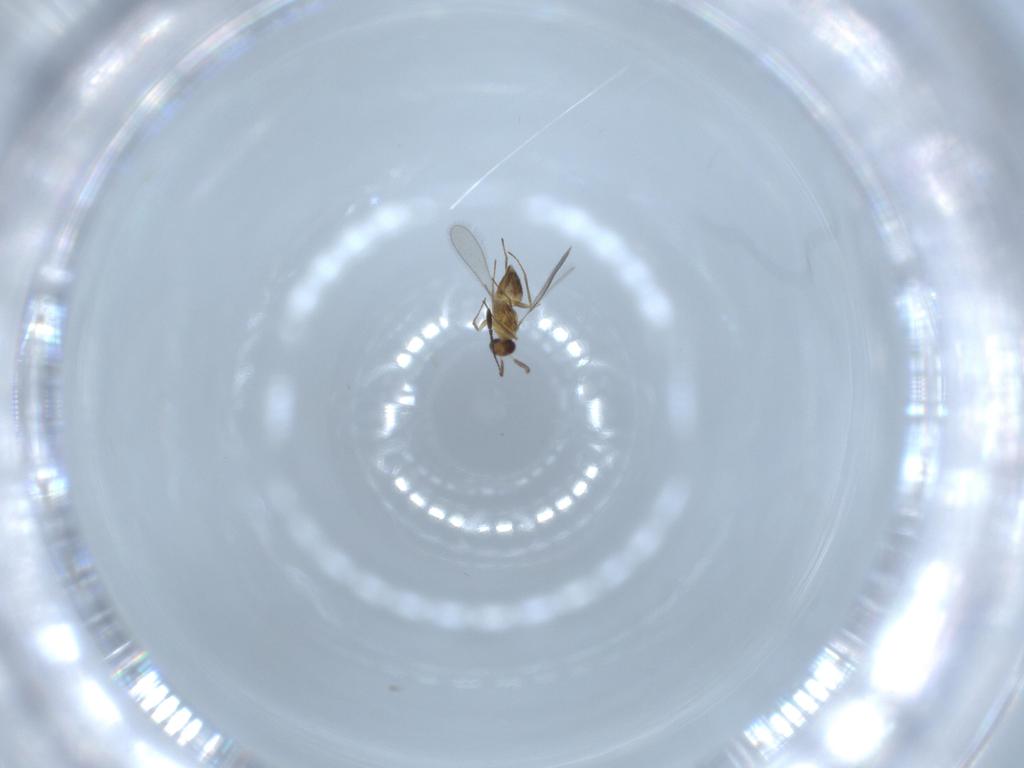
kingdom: Animalia
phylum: Arthropoda
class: Insecta
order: Hymenoptera
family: Mymaridae
